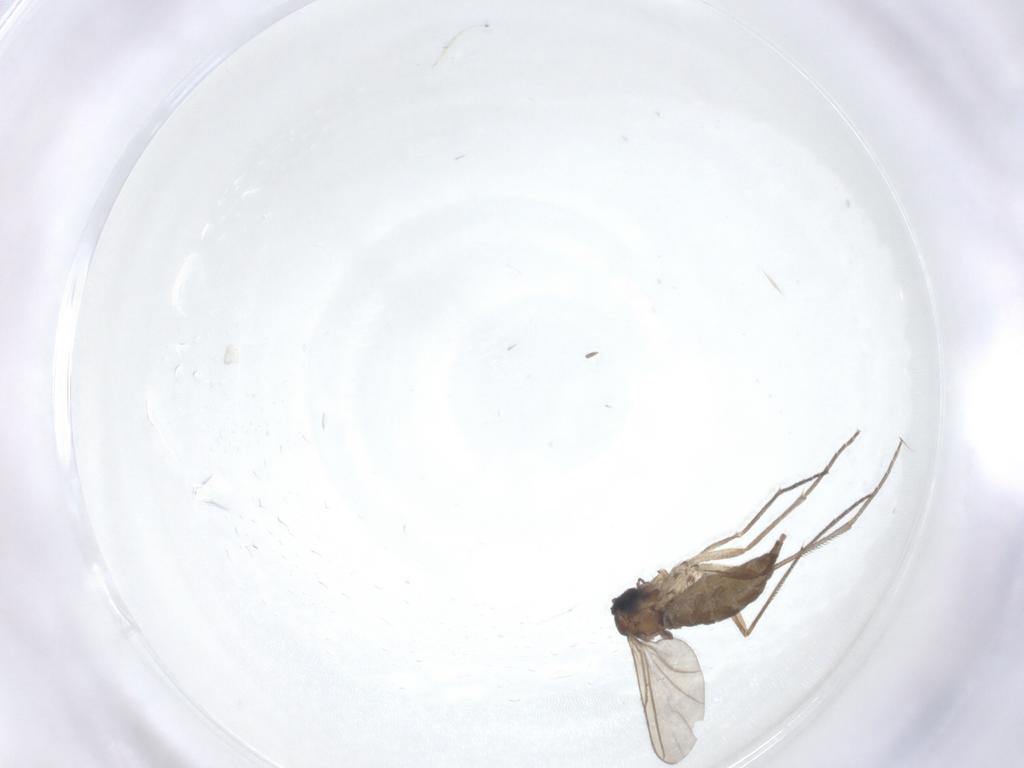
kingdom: Animalia
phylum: Arthropoda
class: Insecta
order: Diptera
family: Sciaridae
